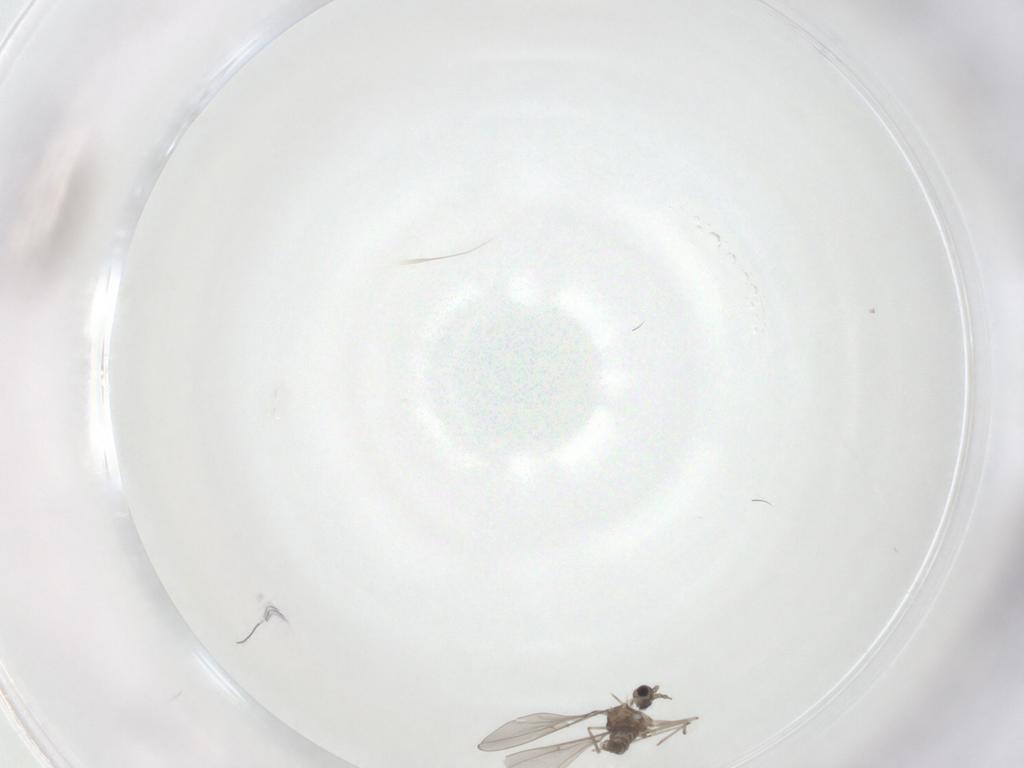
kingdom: Animalia
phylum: Arthropoda
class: Insecta
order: Diptera
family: Cecidomyiidae
